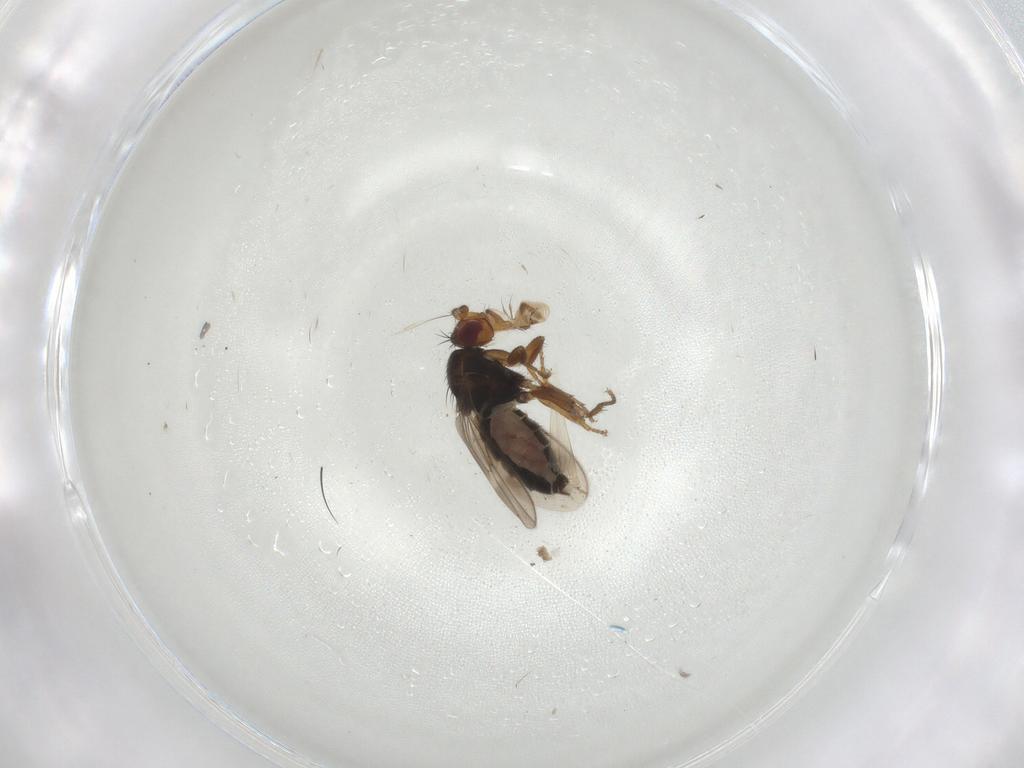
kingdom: Animalia
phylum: Arthropoda
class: Insecta
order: Diptera
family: Sphaeroceridae
